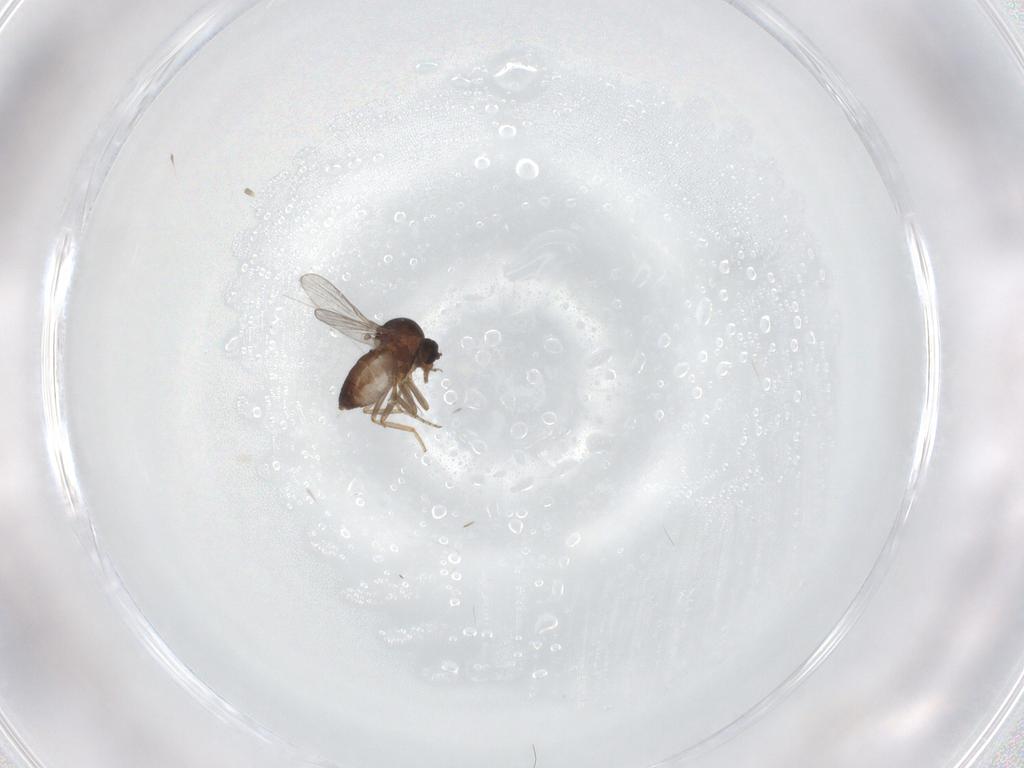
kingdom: Animalia
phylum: Arthropoda
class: Insecta
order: Diptera
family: Ceratopogonidae
